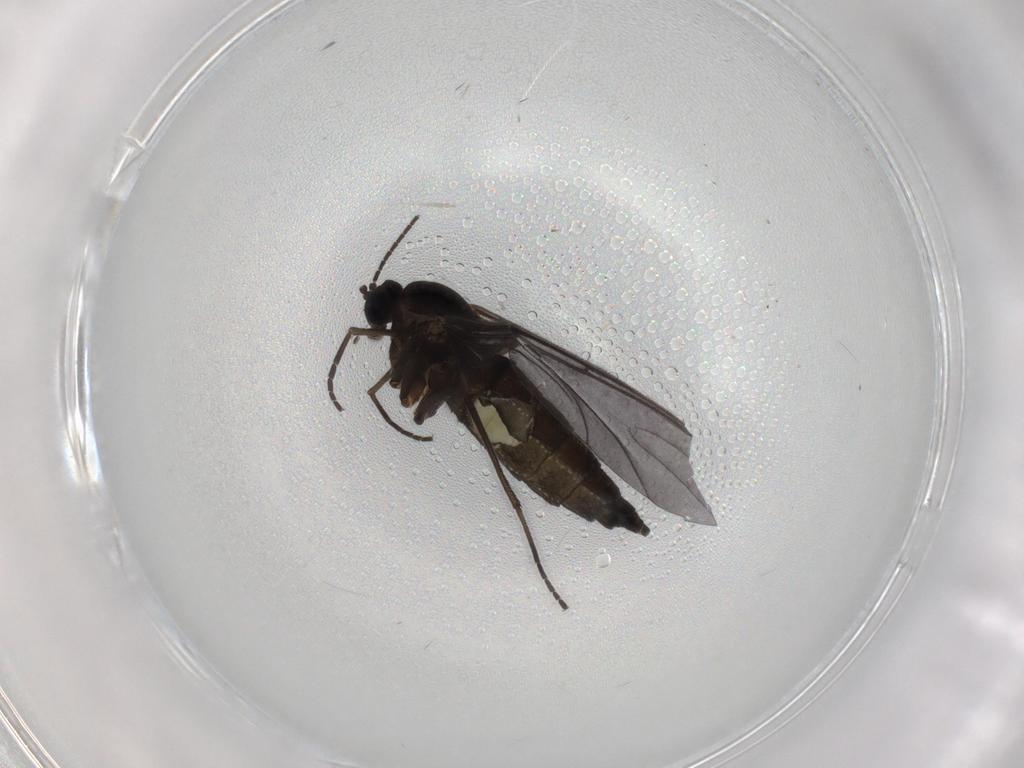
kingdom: Animalia
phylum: Arthropoda
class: Insecta
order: Diptera
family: Sciaridae
